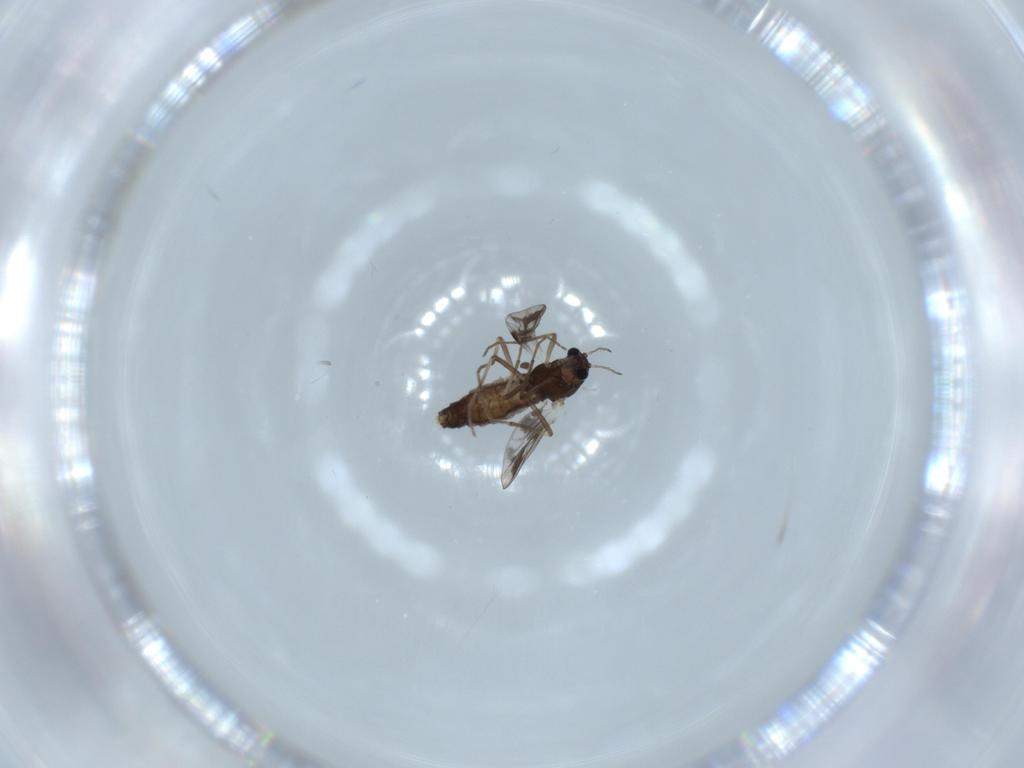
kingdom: Animalia
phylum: Arthropoda
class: Insecta
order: Diptera
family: Chironomidae
